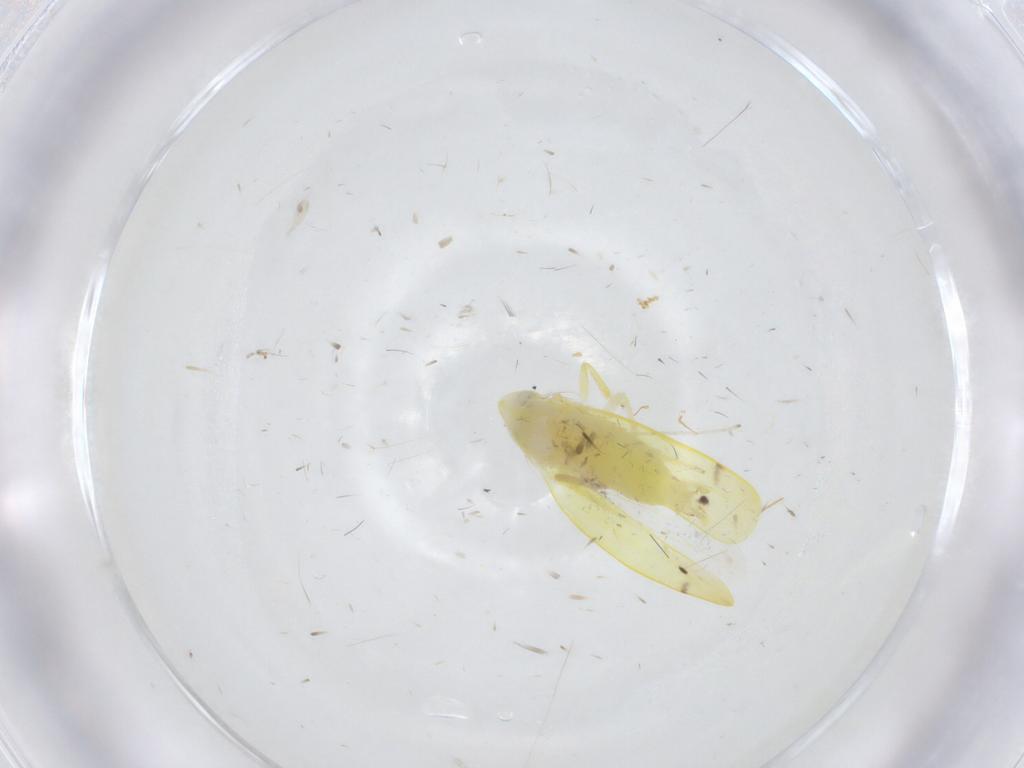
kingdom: Animalia
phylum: Arthropoda
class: Insecta
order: Hemiptera
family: Cicadellidae
